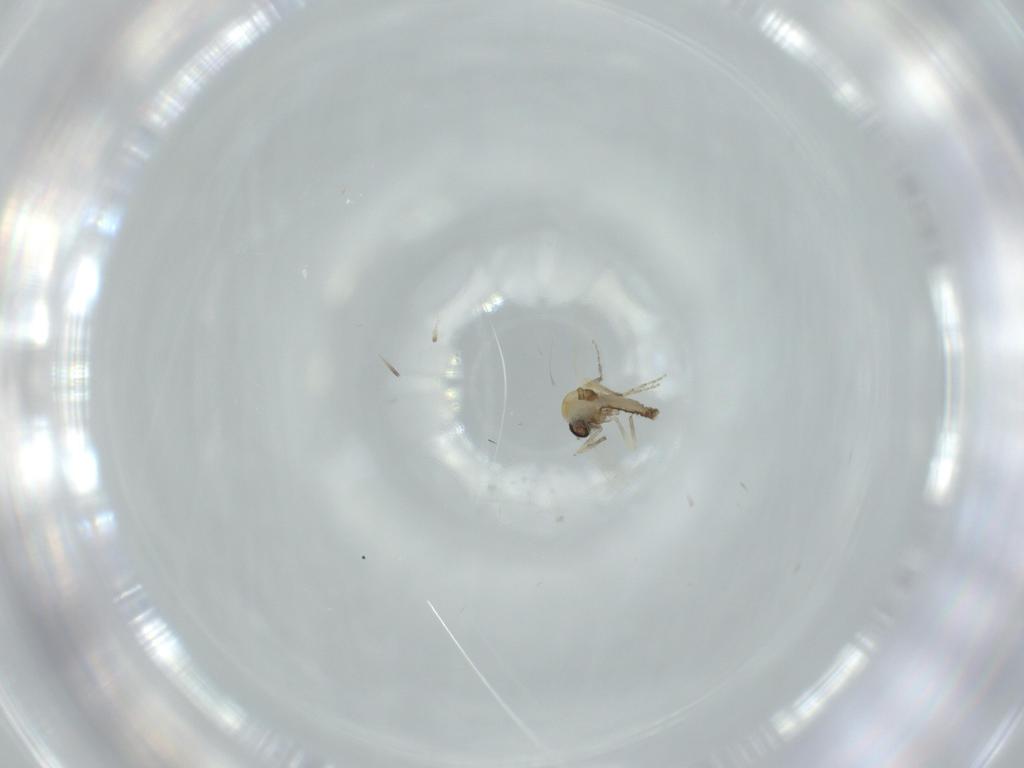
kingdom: Animalia
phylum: Arthropoda
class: Insecta
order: Diptera
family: Ceratopogonidae
